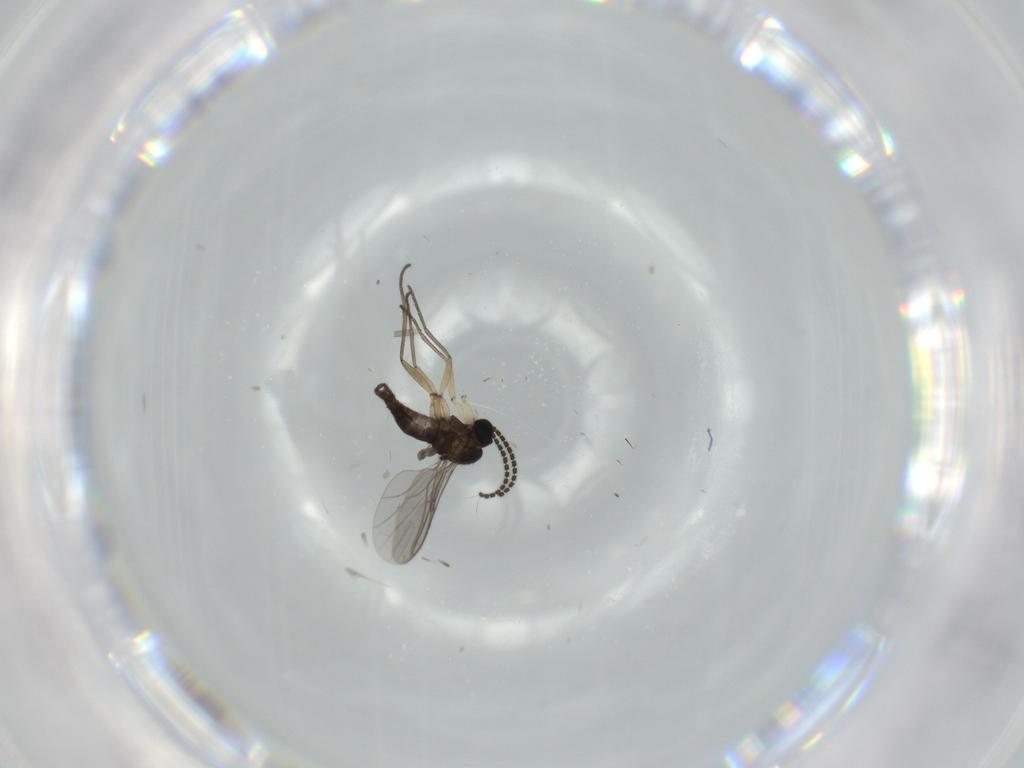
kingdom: Animalia
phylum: Arthropoda
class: Insecta
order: Diptera
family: Sciaridae
